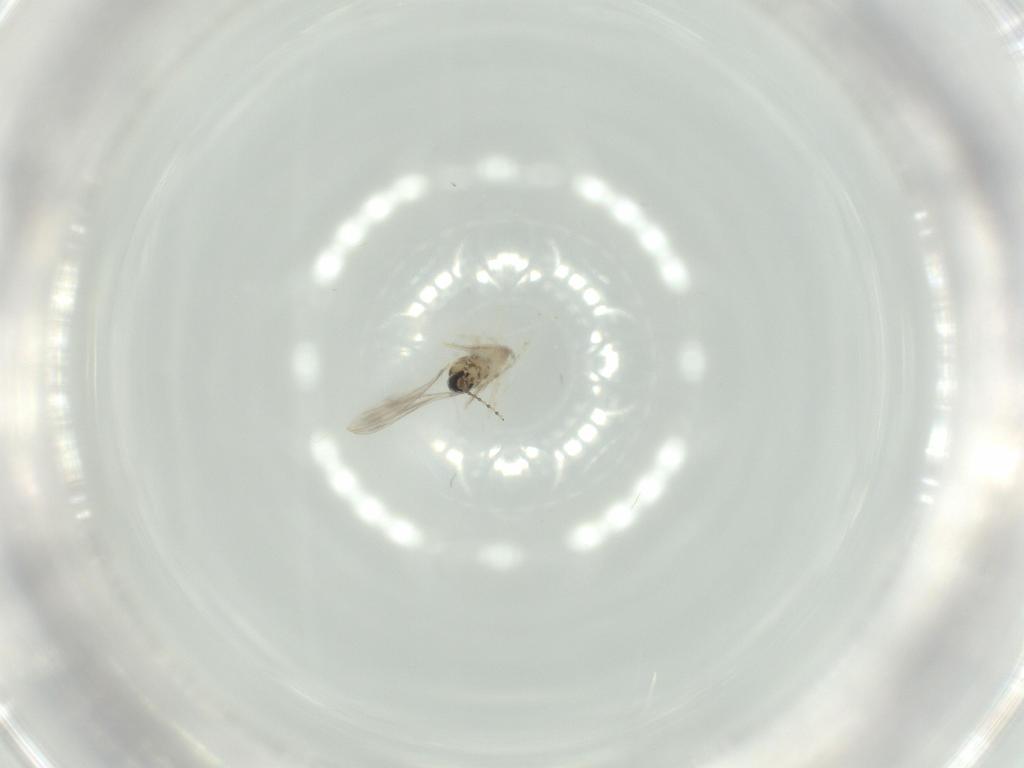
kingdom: Animalia
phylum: Arthropoda
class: Insecta
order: Diptera
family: Cecidomyiidae
